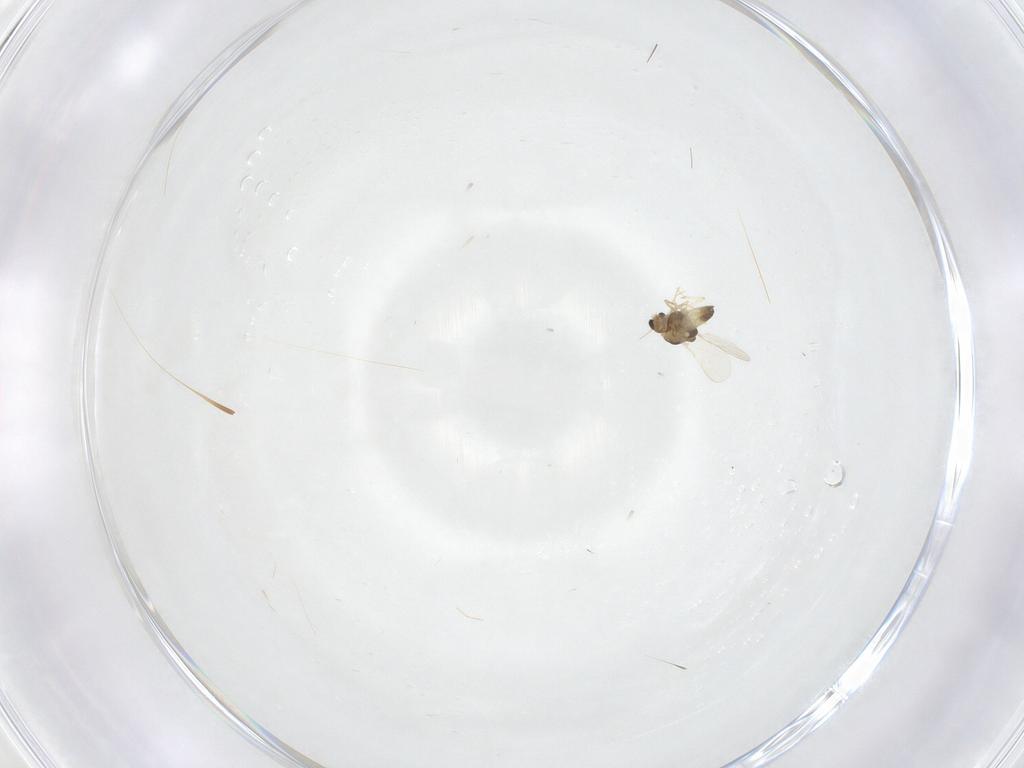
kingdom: Animalia
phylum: Arthropoda
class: Insecta
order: Diptera
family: Chironomidae
